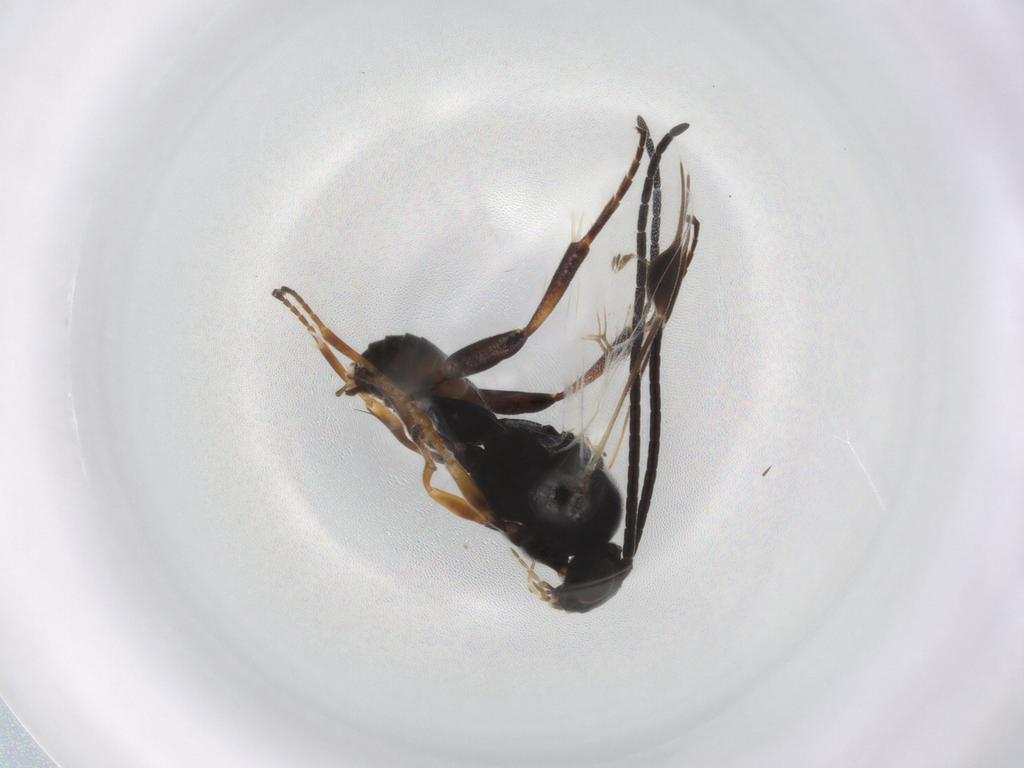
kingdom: Animalia
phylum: Arthropoda
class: Insecta
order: Hymenoptera
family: Braconidae
